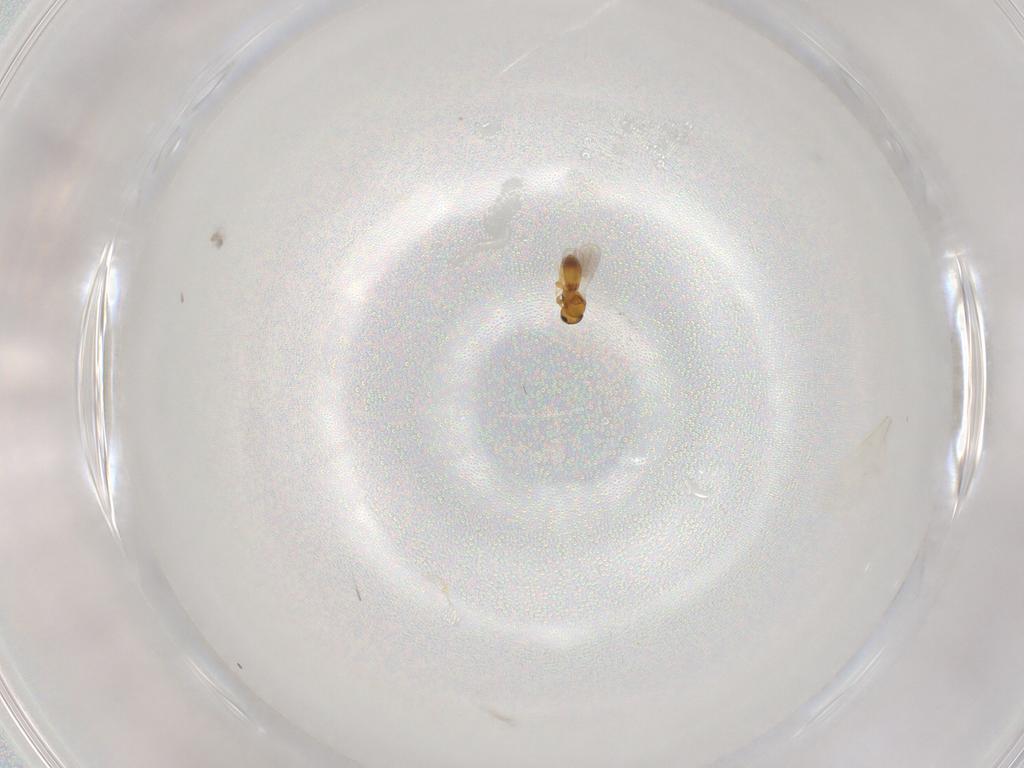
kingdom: Animalia
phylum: Arthropoda
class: Insecta
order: Hymenoptera
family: Platygastridae
